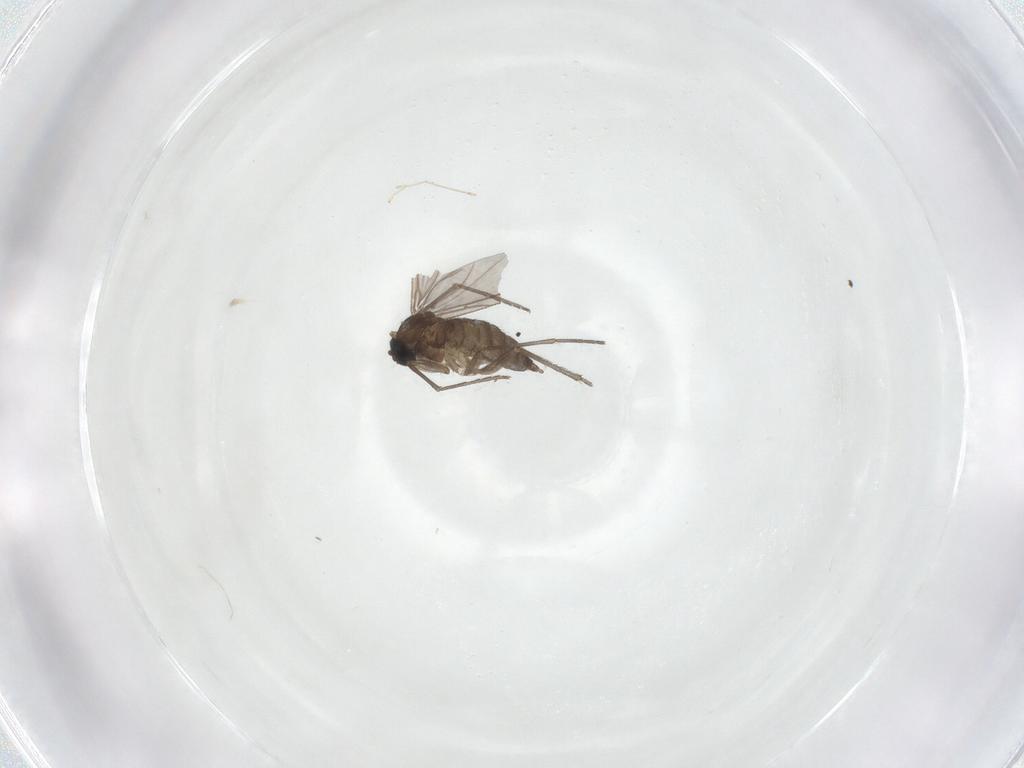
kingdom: Animalia
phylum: Arthropoda
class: Insecta
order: Diptera
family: Sciaridae
